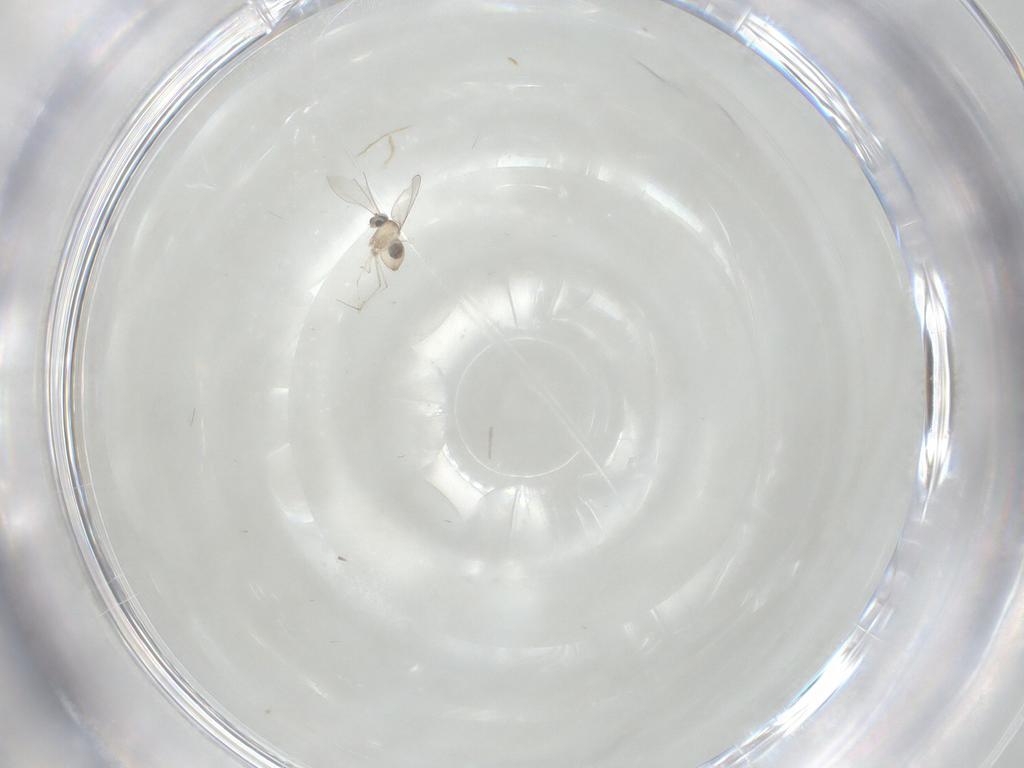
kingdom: Animalia
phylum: Arthropoda
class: Insecta
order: Diptera
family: Cecidomyiidae
